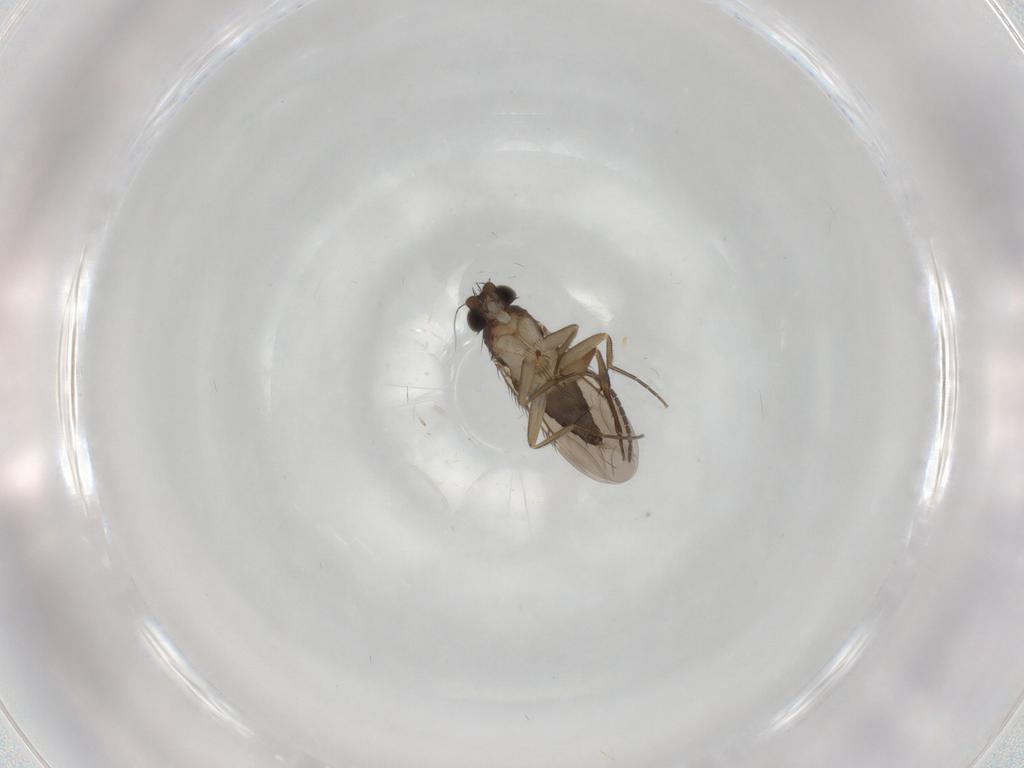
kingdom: Animalia
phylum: Arthropoda
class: Insecta
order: Diptera
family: Phoridae
